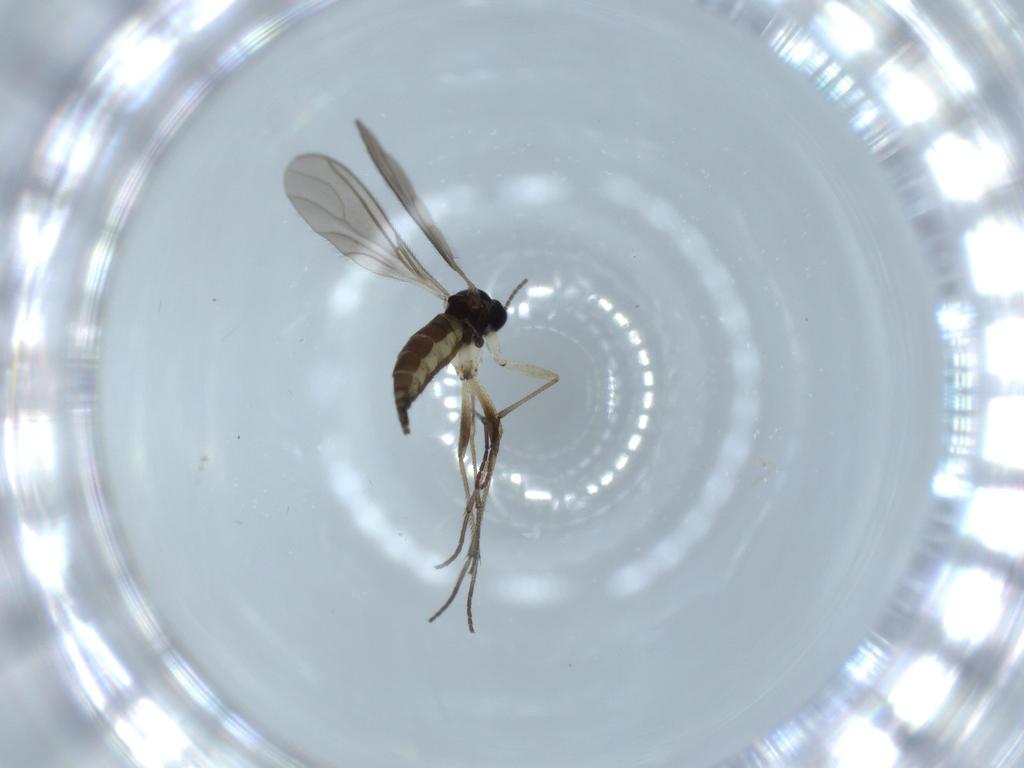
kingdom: Animalia
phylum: Arthropoda
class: Insecta
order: Diptera
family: Sciaridae
